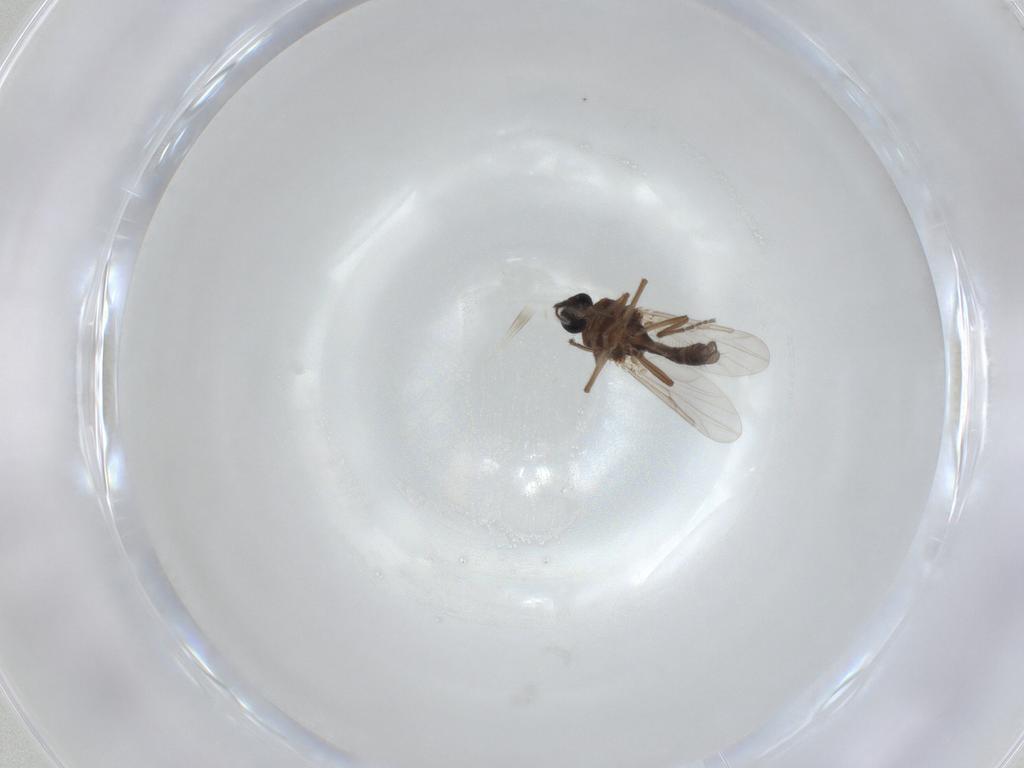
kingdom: Animalia
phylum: Arthropoda
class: Insecta
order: Diptera
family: Ceratopogonidae
